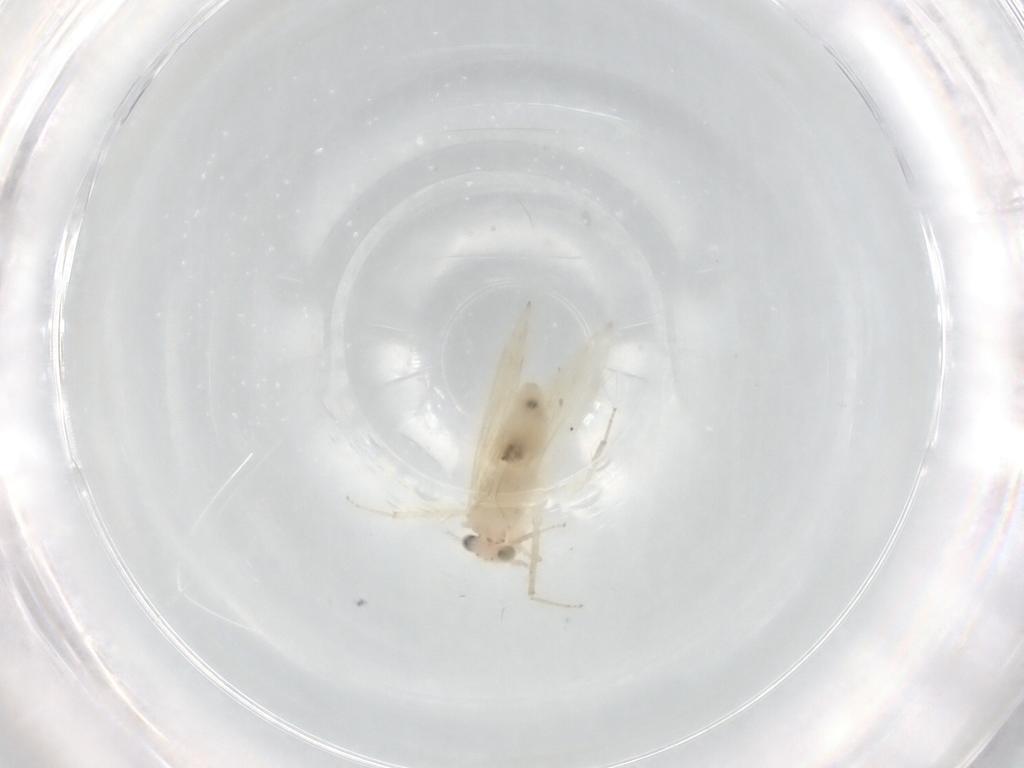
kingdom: Animalia
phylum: Arthropoda
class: Insecta
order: Psocodea
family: Lepidopsocidae
